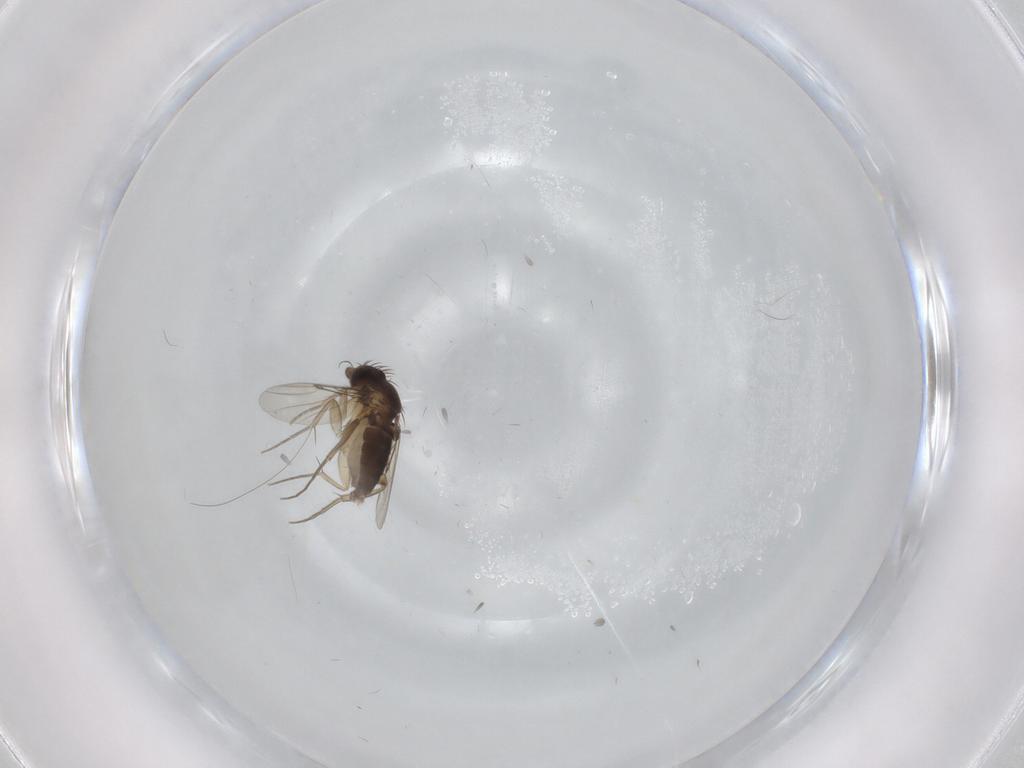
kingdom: Animalia
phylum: Arthropoda
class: Insecta
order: Diptera
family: Phoridae
